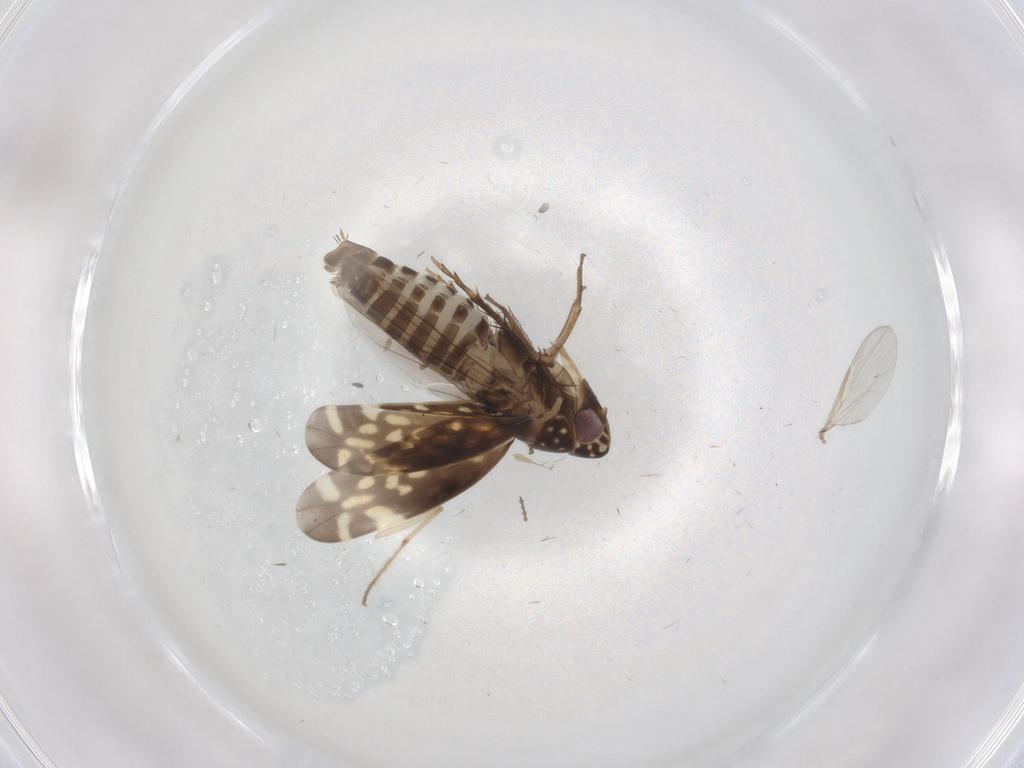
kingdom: Animalia
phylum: Arthropoda
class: Insecta
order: Hemiptera
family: Cicadellidae
